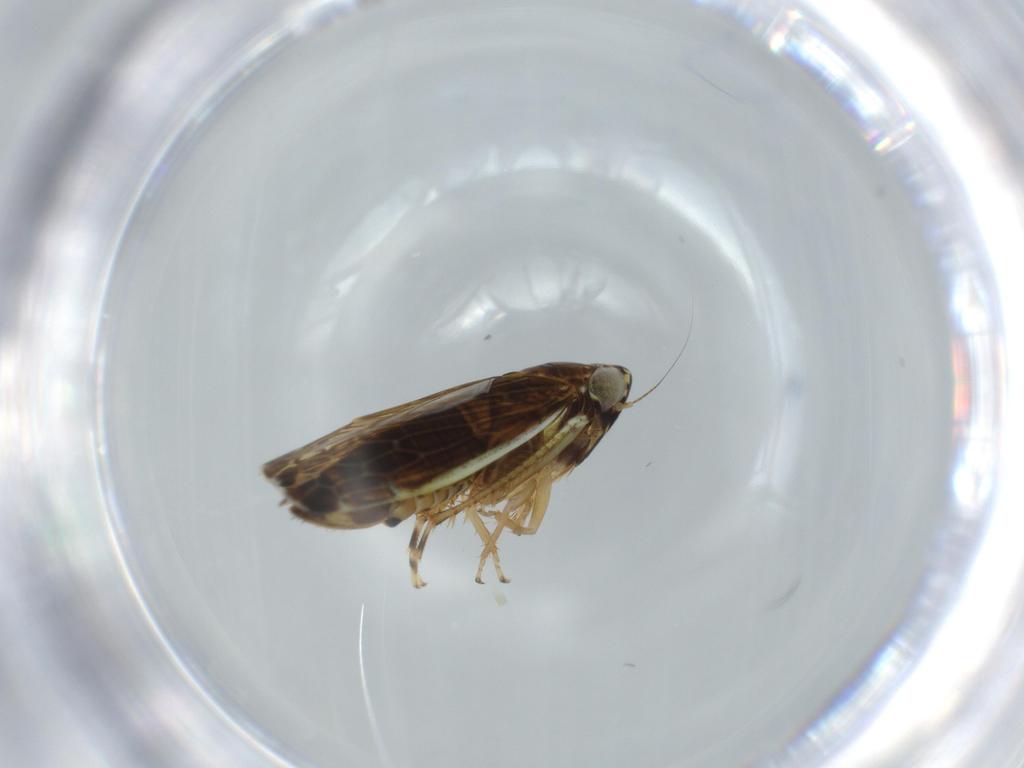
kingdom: Animalia
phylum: Arthropoda
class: Insecta
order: Hemiptera
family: Cicadellidae
